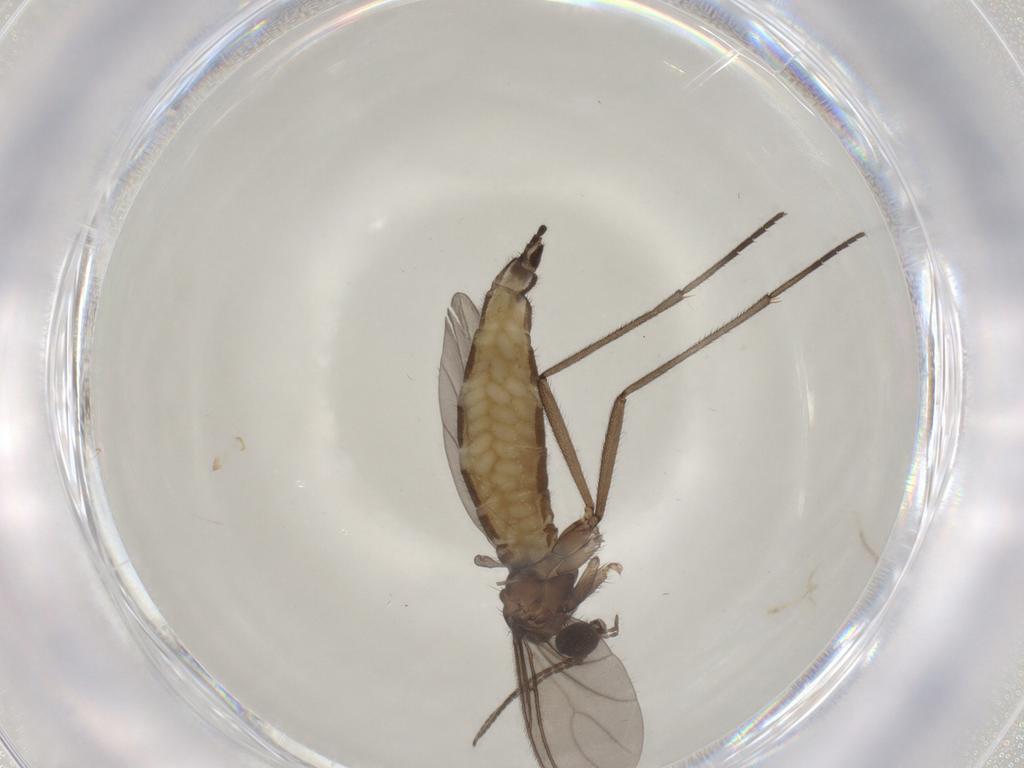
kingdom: Animalia
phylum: Arthropoda
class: Insecta
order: Diptera
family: Sciaridae
